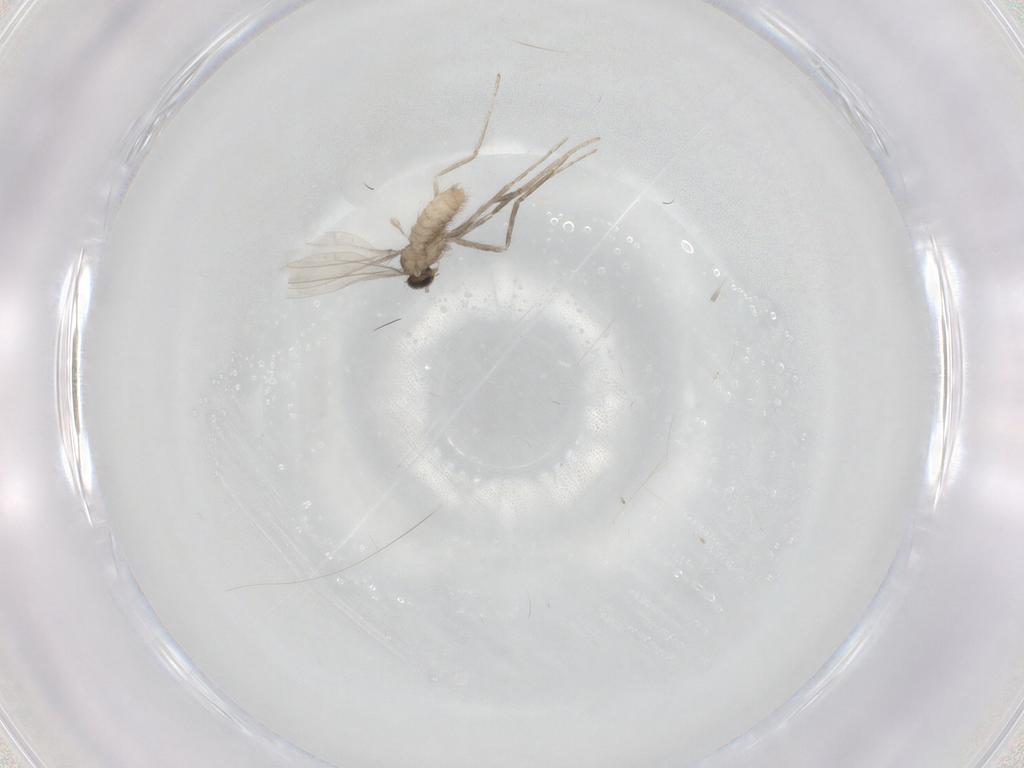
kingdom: Animalia
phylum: Arthropoda
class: Insecta
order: Diptera
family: Cecidomyiidae
